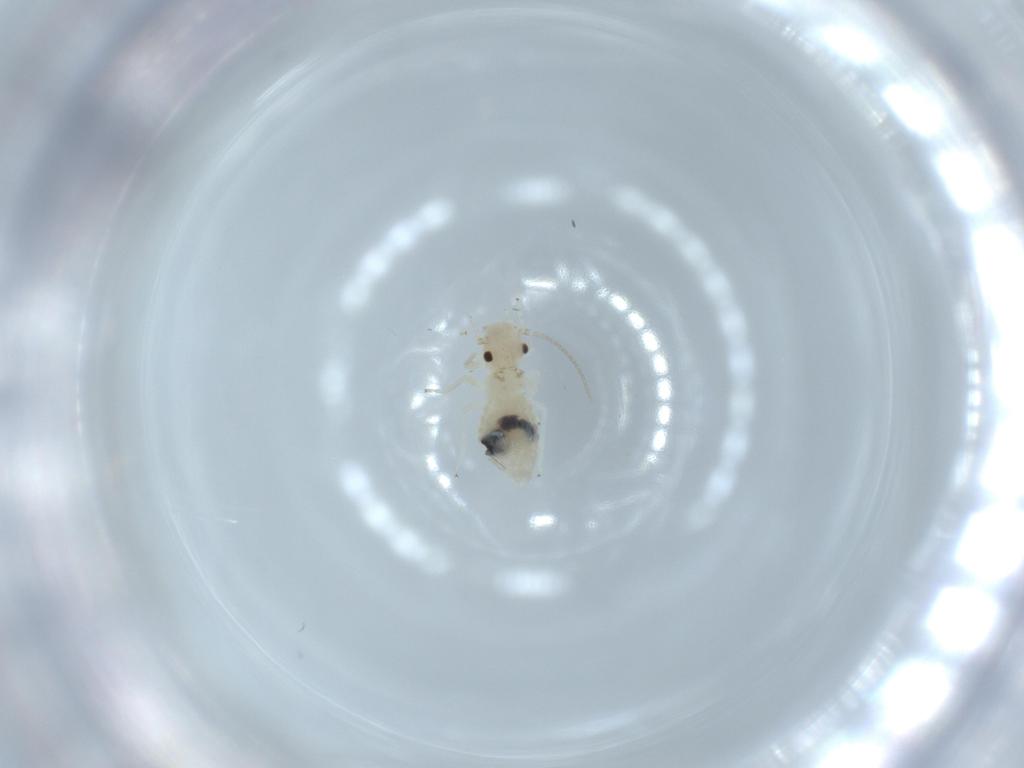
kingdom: Animalia
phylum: Arthropoda
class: Insecta
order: Psocodea
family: Caeciliusidae
